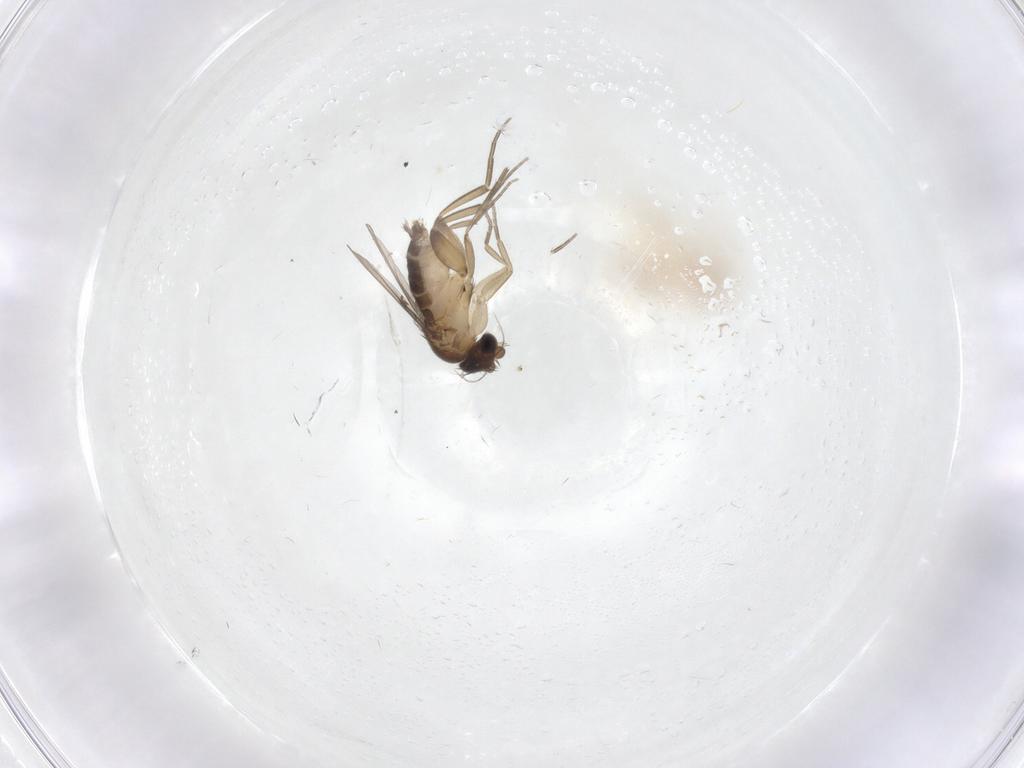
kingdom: Animalia
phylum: Arthropoda
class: Insecta
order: Diptera
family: Phoridae
